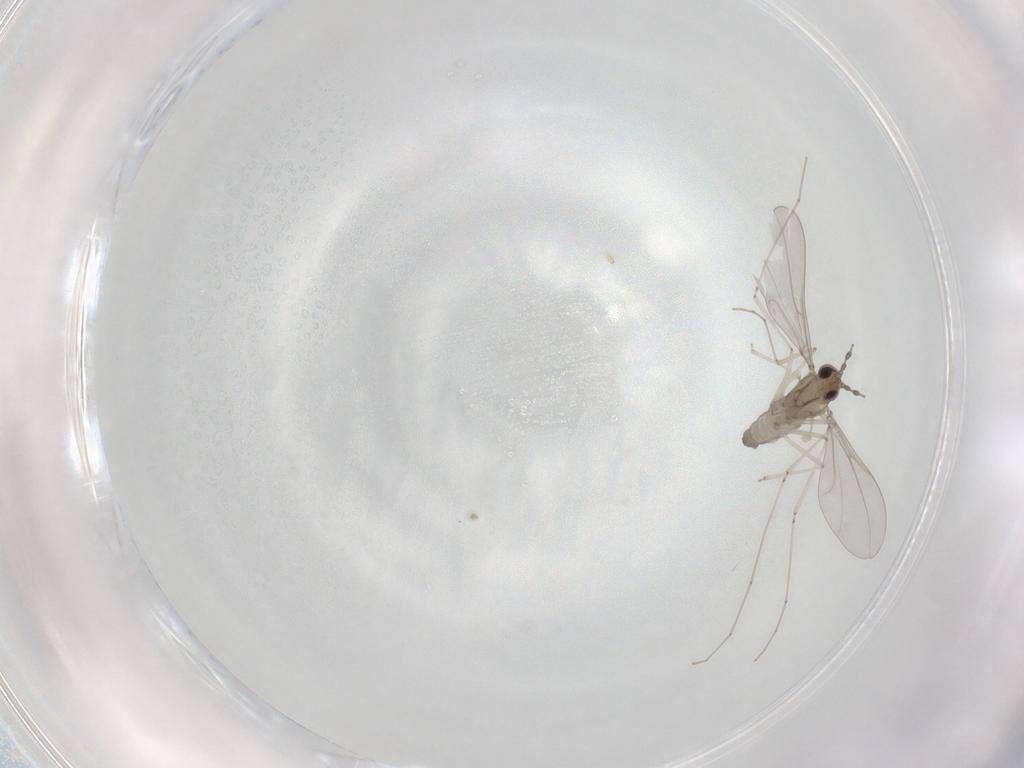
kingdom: Animalia
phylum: Arthropoda
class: Insecta
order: Diptera
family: Cecidomyiidae
